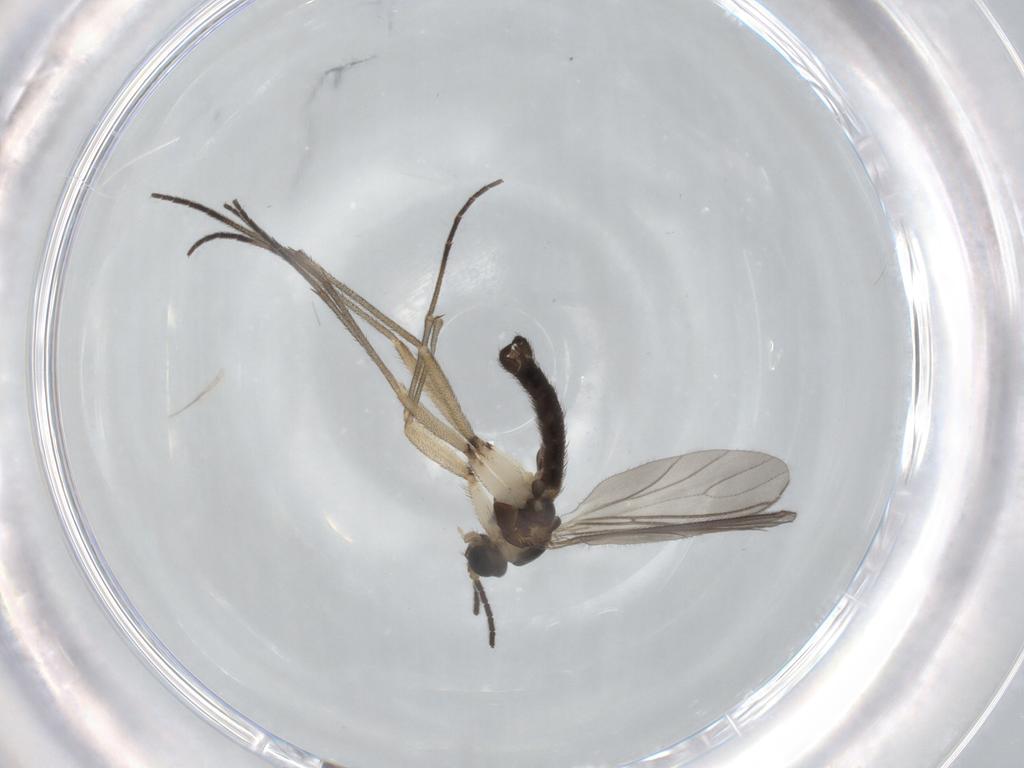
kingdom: Animalia
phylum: Arthropoda
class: Insecta
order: Diptera
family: Sciaridae
